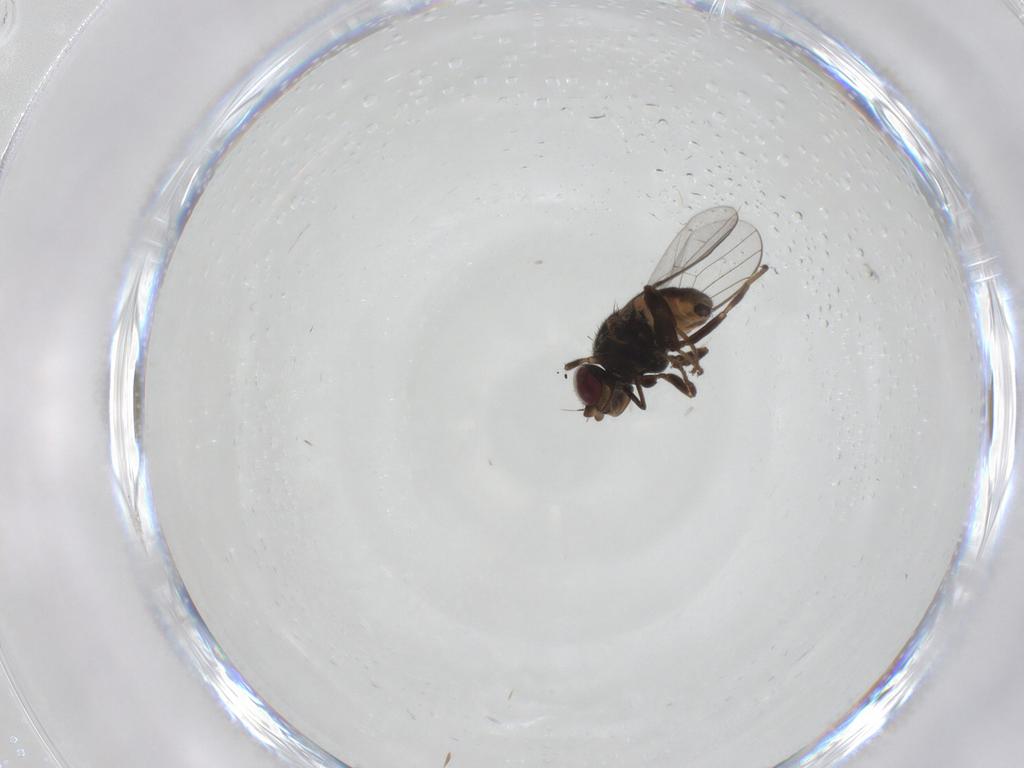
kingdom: Animalia
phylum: Arthropoda
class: Insecta
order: Diptera
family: Chloropidae
